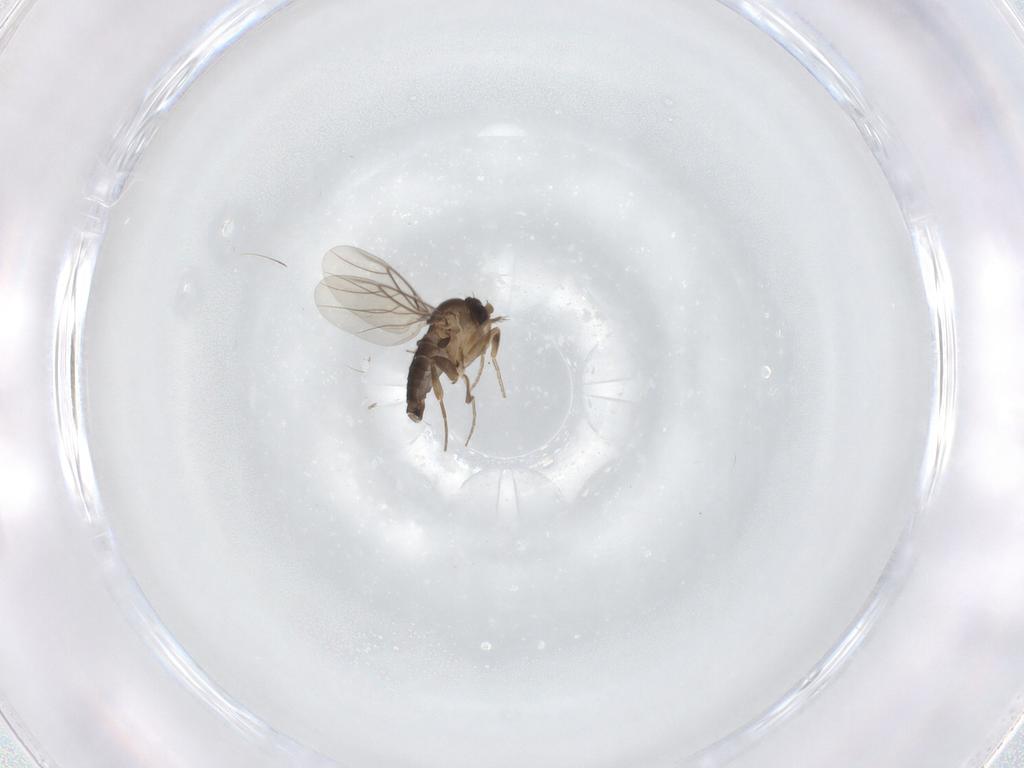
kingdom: Animalia
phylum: Arthropoda
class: Insecta
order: Diptera
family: Phoridae
